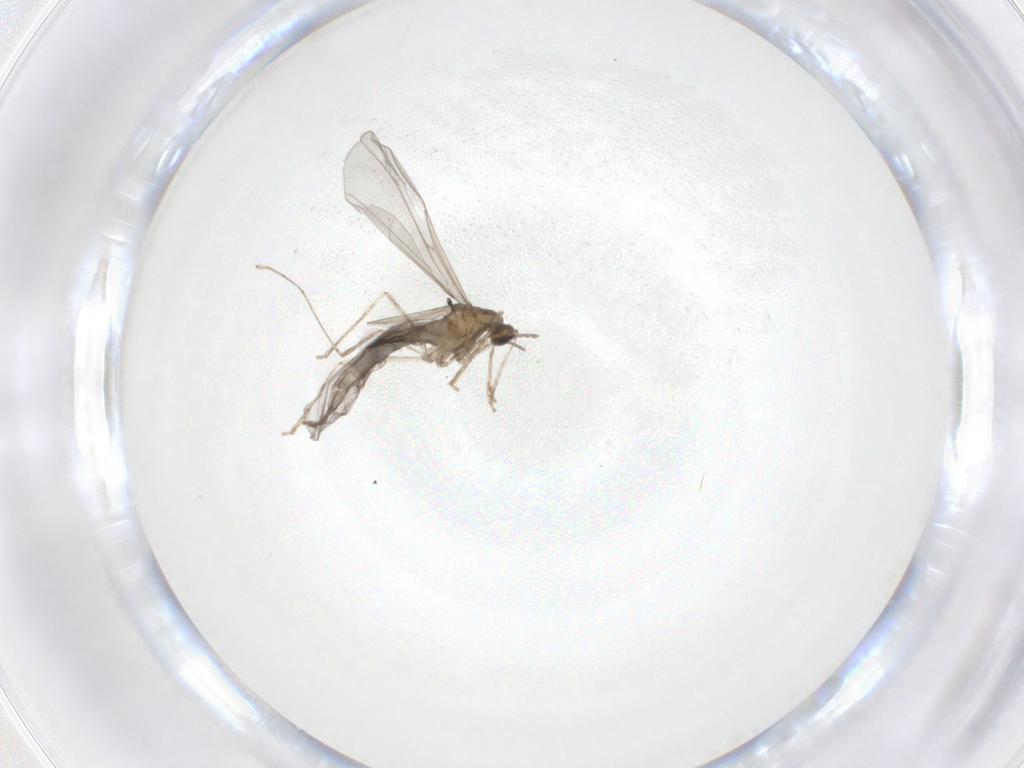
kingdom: Animalia
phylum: Arthropoda
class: Insecta
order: Diptera
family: Cecidomyiidae
